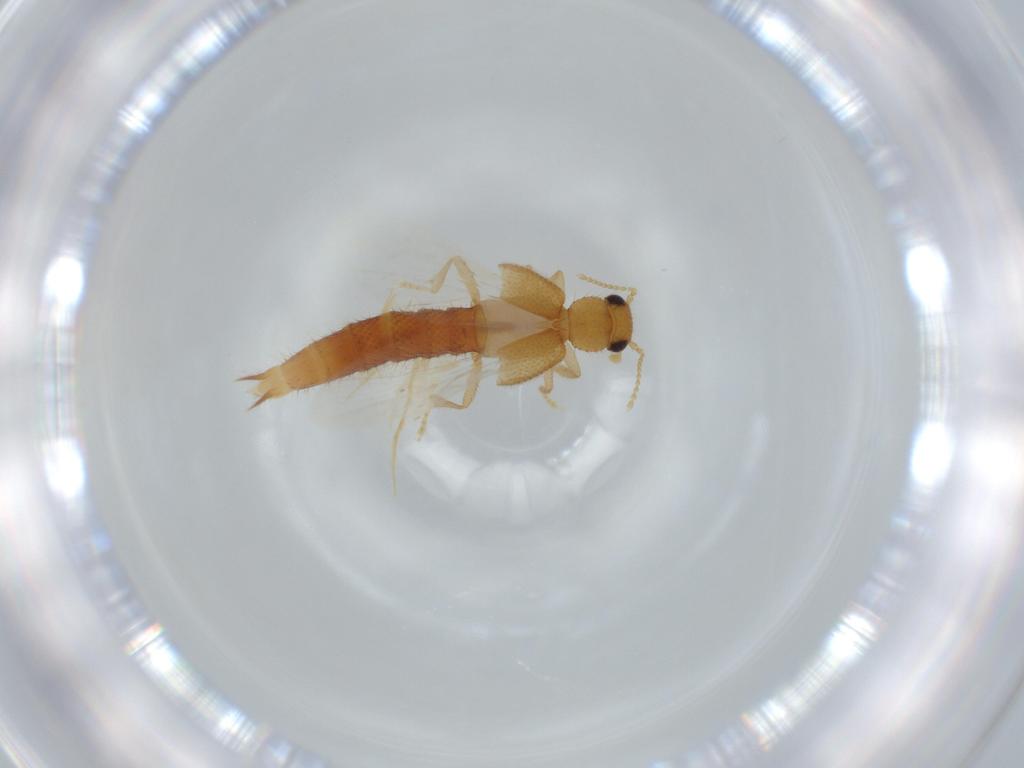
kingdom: Animalia
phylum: Arthropoda
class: Insecta
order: Coleoptera
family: Staphylinidae
